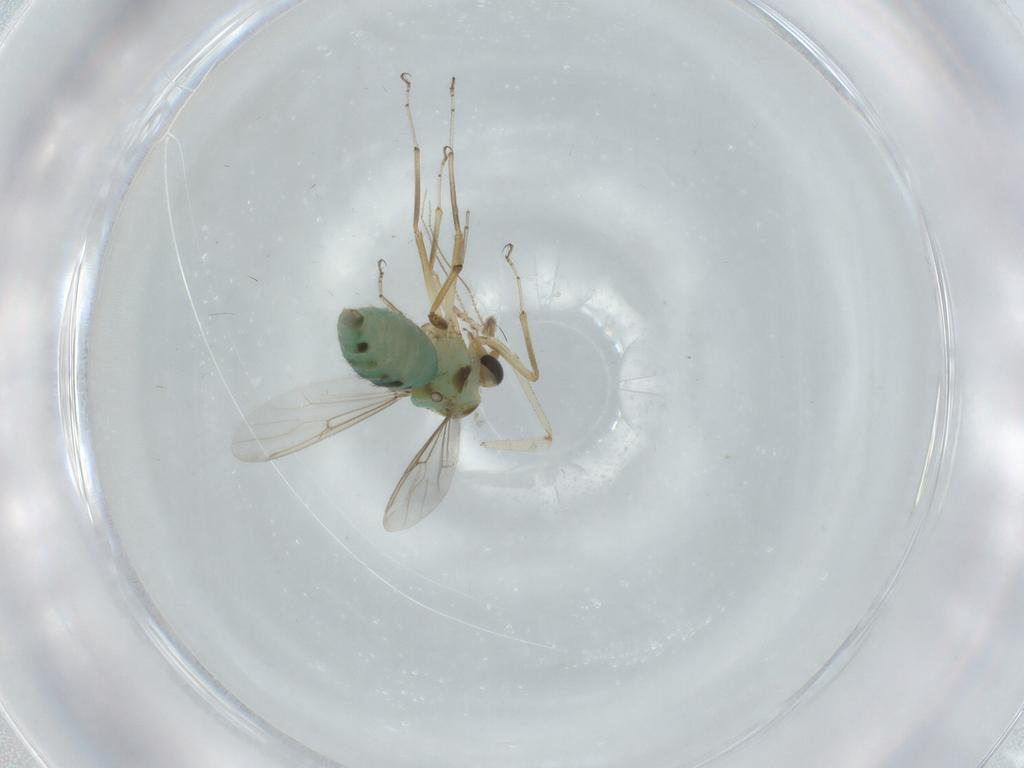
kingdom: Animalia
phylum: Arthropoda
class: Insecta
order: Diptera
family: Ceratopogonidae
